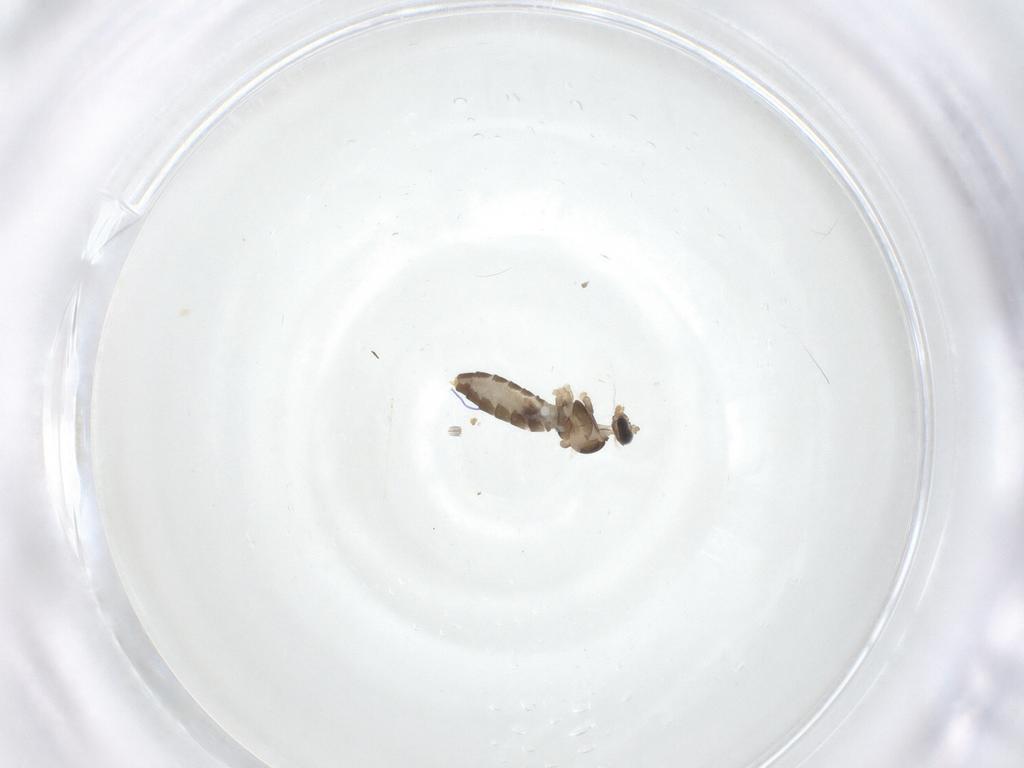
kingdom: Animalia
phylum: Arthropoda
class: Insecta
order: Diptera
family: Cecidomyiidae
